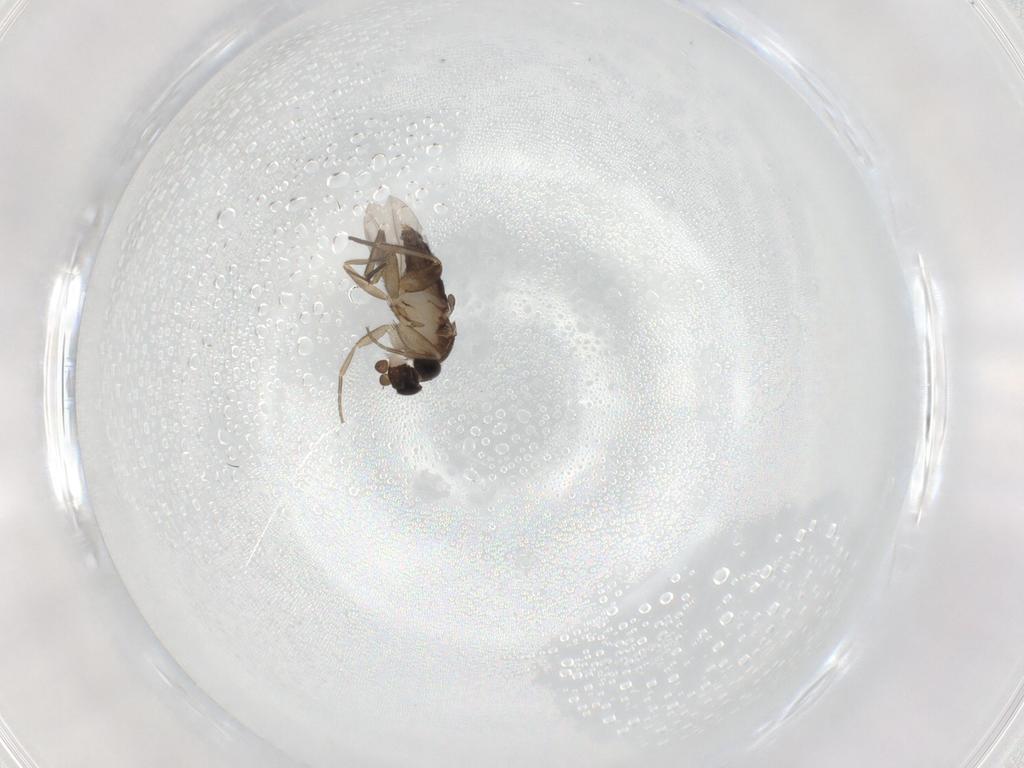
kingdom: Animalia
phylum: Arthropoda
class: Insecta
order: Diptera
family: Phoridae
